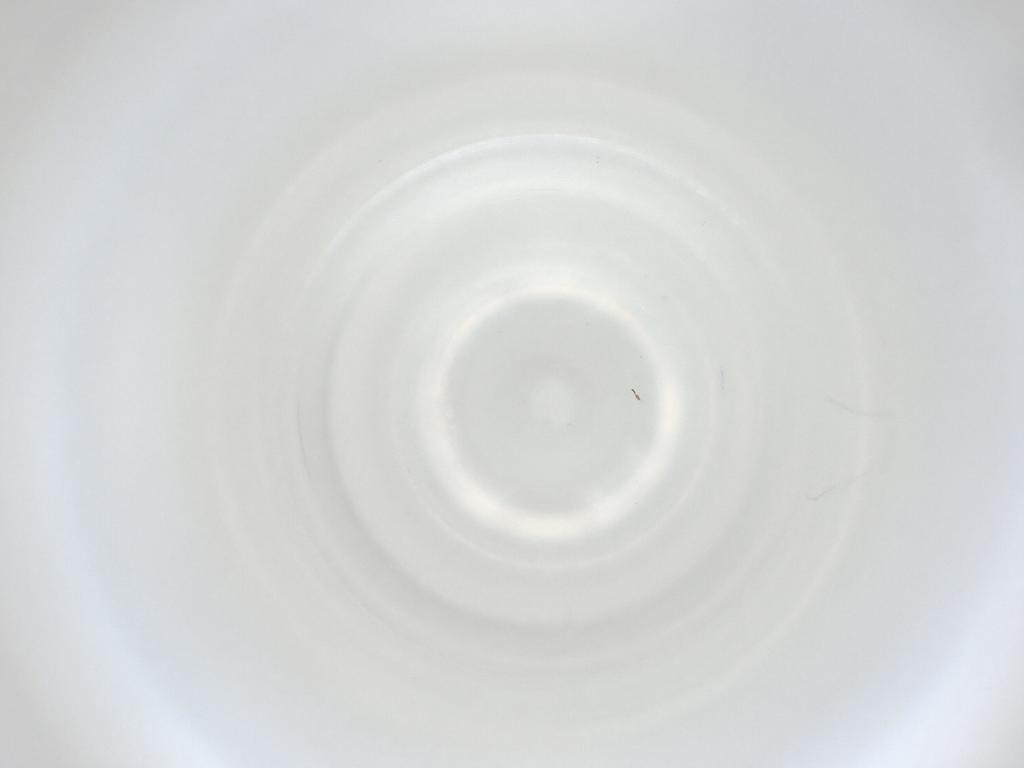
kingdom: Animalia
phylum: Arthropoda
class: Insecta
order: Diptera
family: Cecidomyiidae
